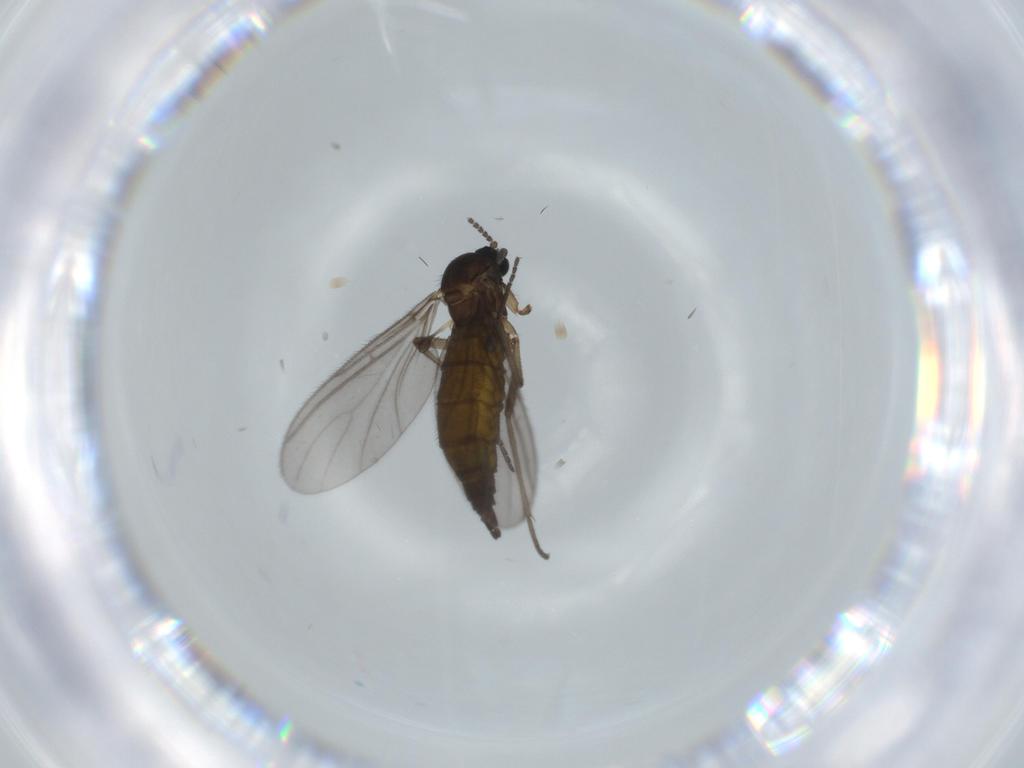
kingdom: Animalia
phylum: Arthropoda
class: Insecta
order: Diptera
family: Sciaridae
